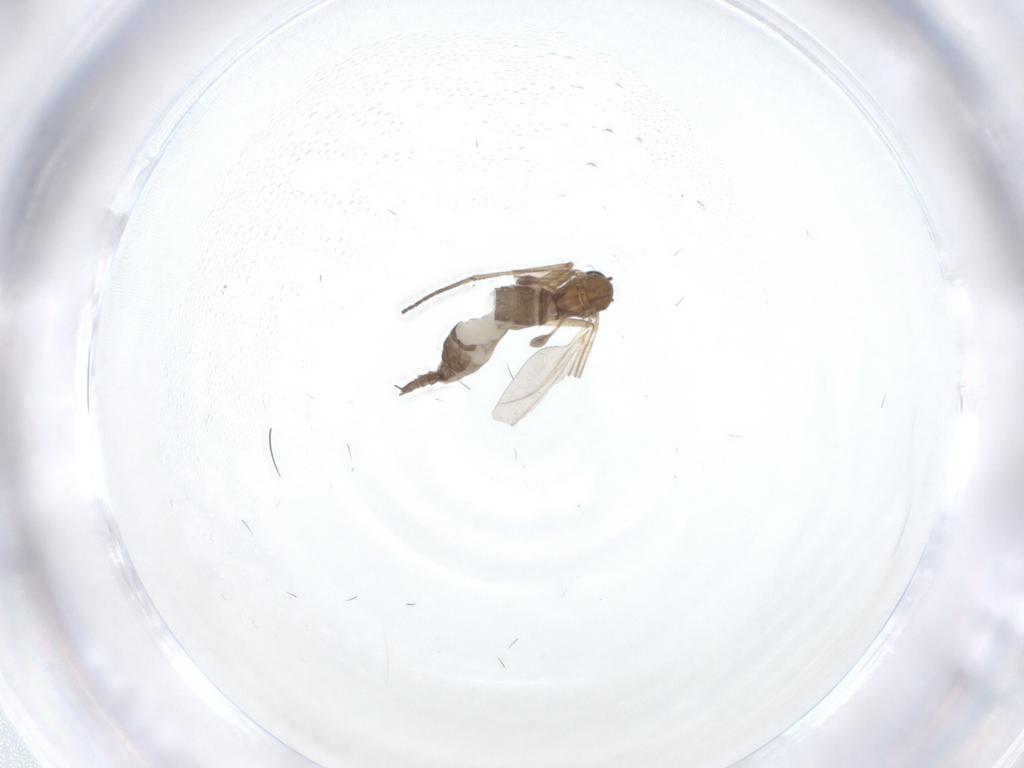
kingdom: Animalia
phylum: Arthropoda
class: Insecta
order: Diptera
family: Sciaridae
